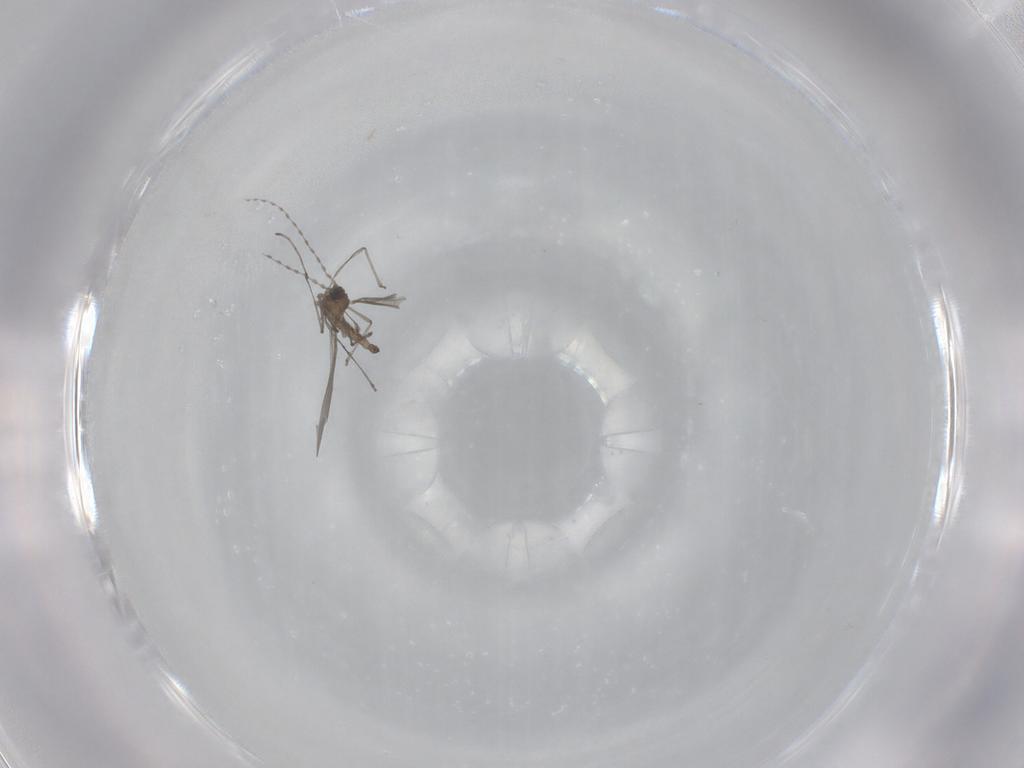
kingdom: Animalia
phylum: Arthropoda
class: Insecta
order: Diptera
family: Cecidomyiidae
